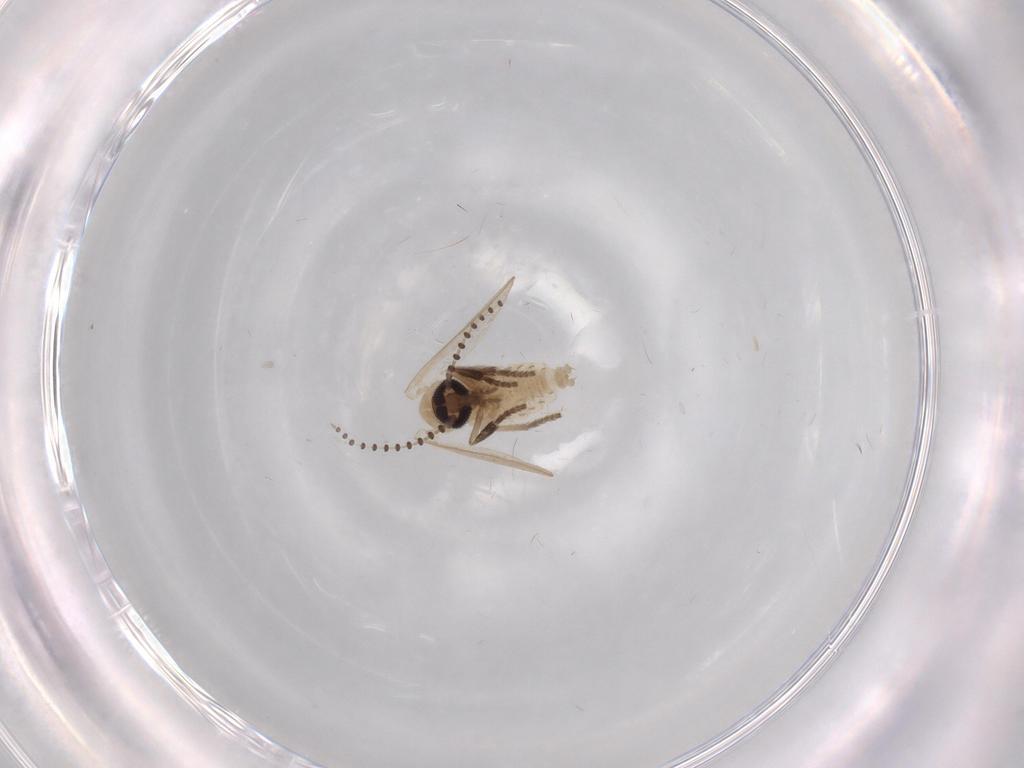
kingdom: Animalia
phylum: Arthropoda
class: Insecta
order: Diptera
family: Psychodidae
